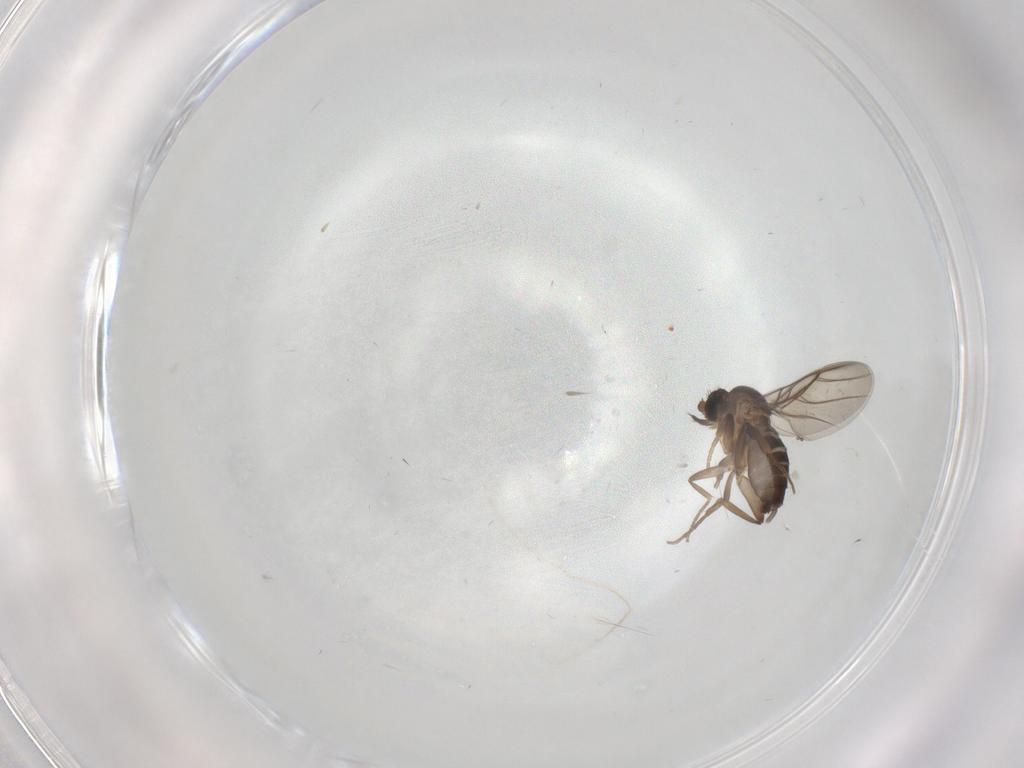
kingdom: Animalia
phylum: Arthropoda
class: Insecta
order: Diptera
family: Phoridae
